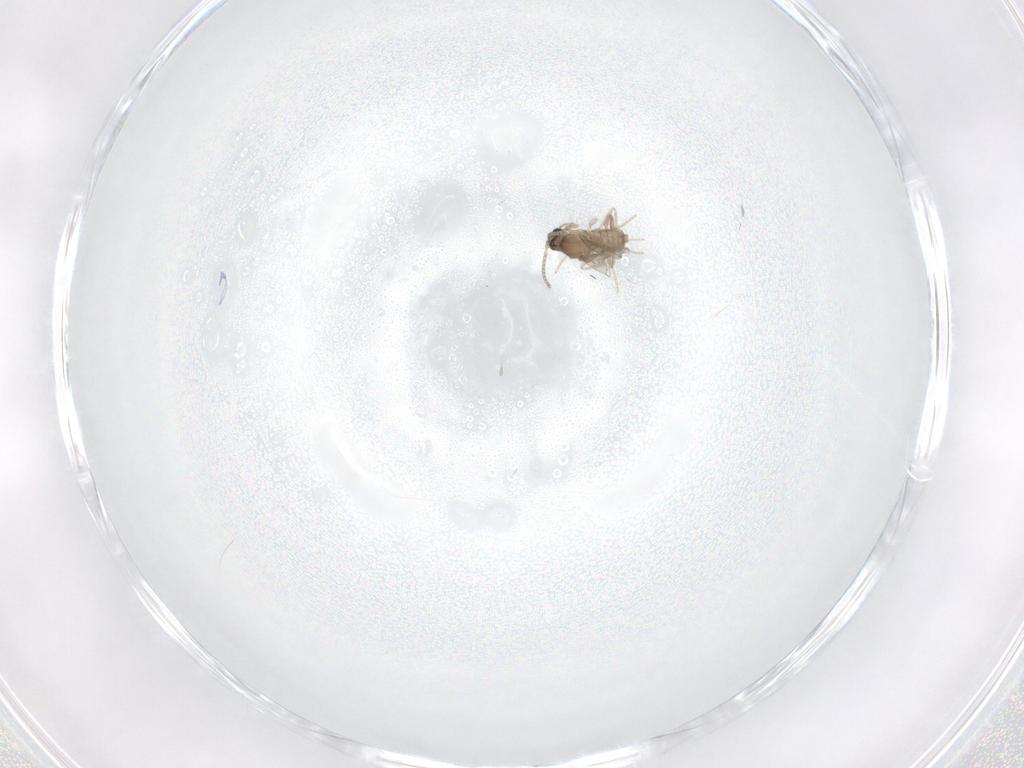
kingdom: Animalia
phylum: Arthropoda
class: Insecta
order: Diptera
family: Cecidomyiidae
